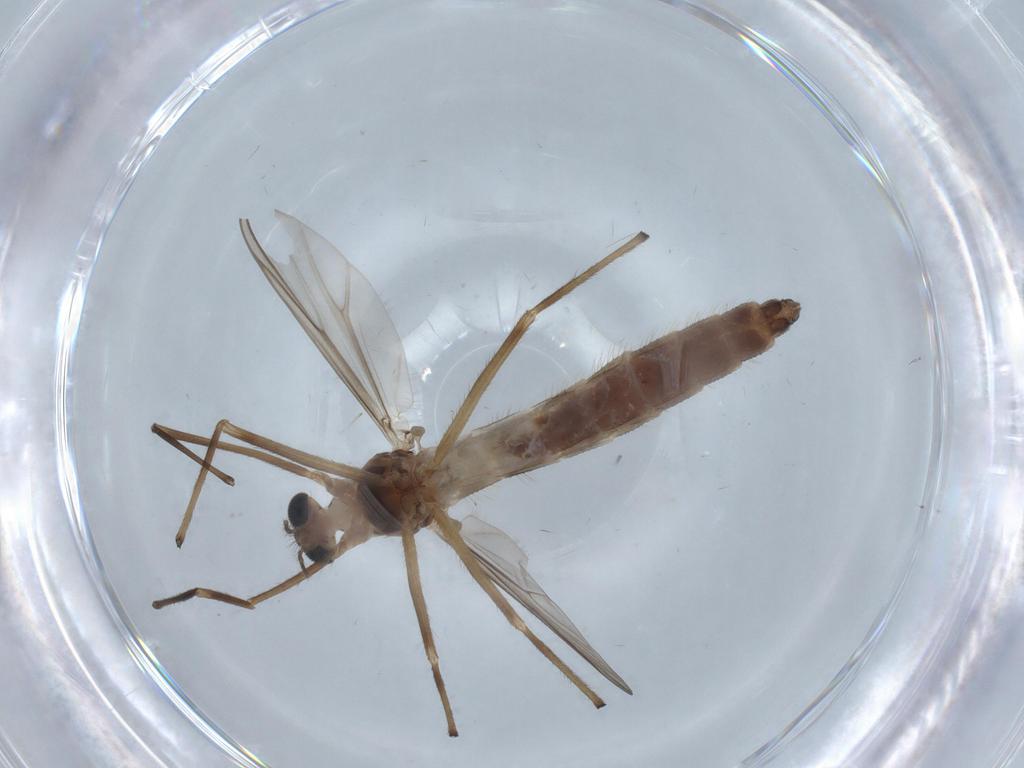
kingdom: Animalia
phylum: Arthropoda
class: Insecta
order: Diptera
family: Chironomidae
